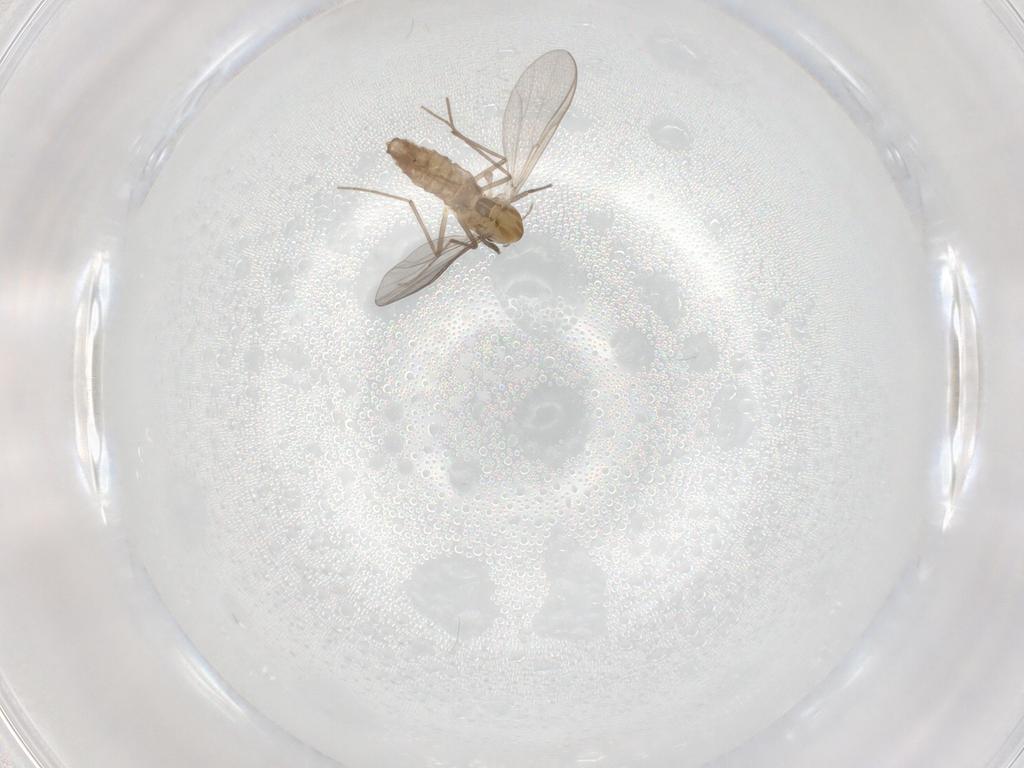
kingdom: Animalia
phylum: Arthropoda
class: Insecta
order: Diptera
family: Chironomidae
